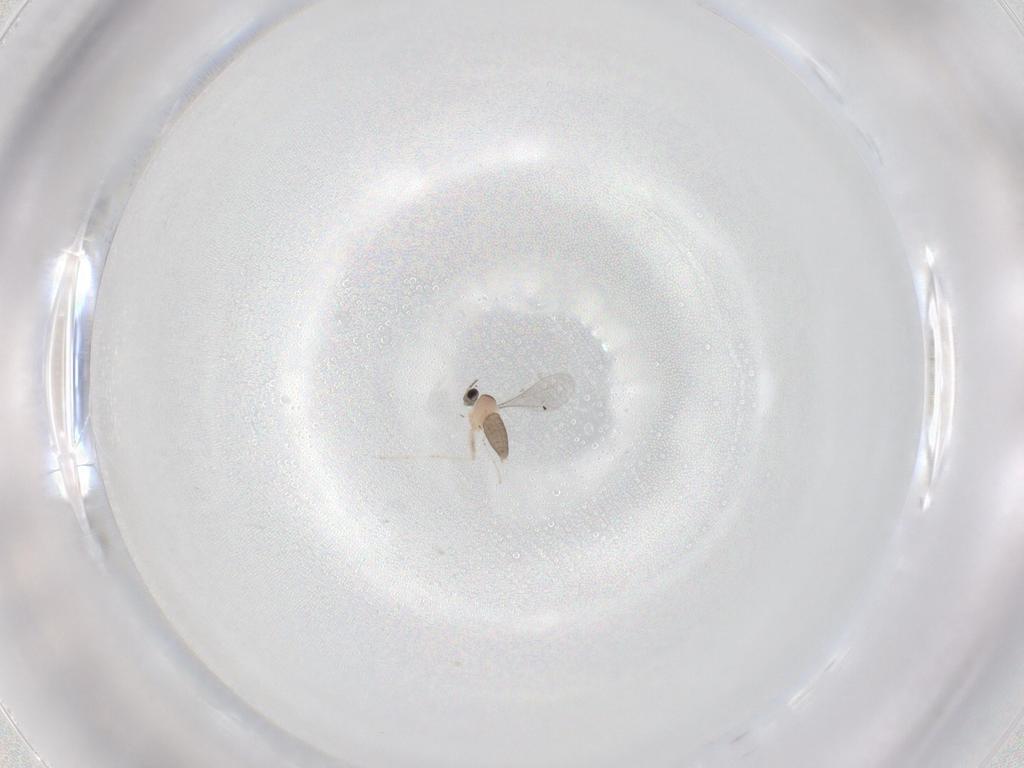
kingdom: Animalia
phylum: Arthropoda
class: Insecta
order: Diptera
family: Cecidomyiidae
